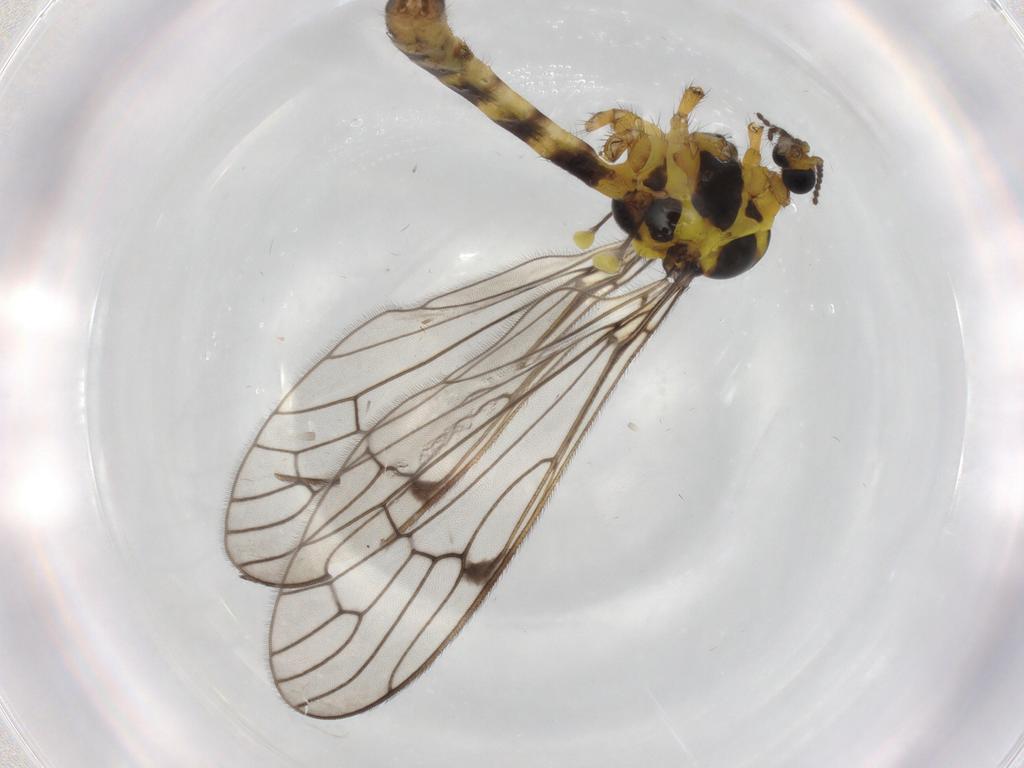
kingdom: Animalia
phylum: Arthropoda
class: Insecta
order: Diptera
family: Limoniidae
